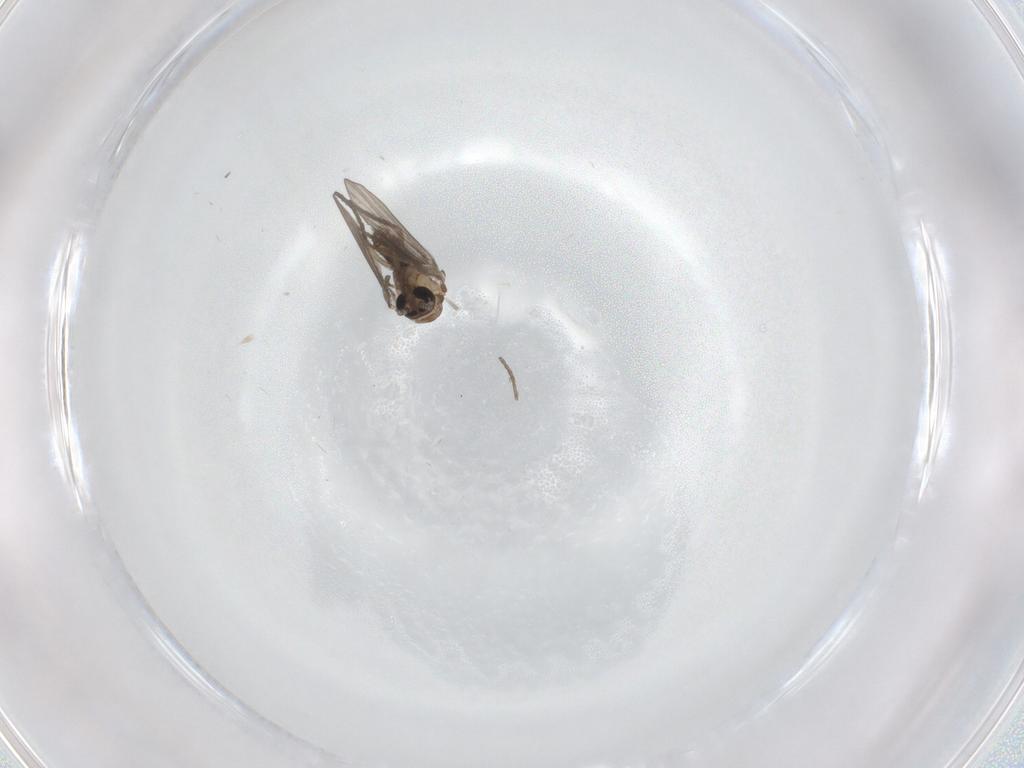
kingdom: Animalia
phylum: Arthropoda
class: Insecta
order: Diptera
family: Psychodidae
